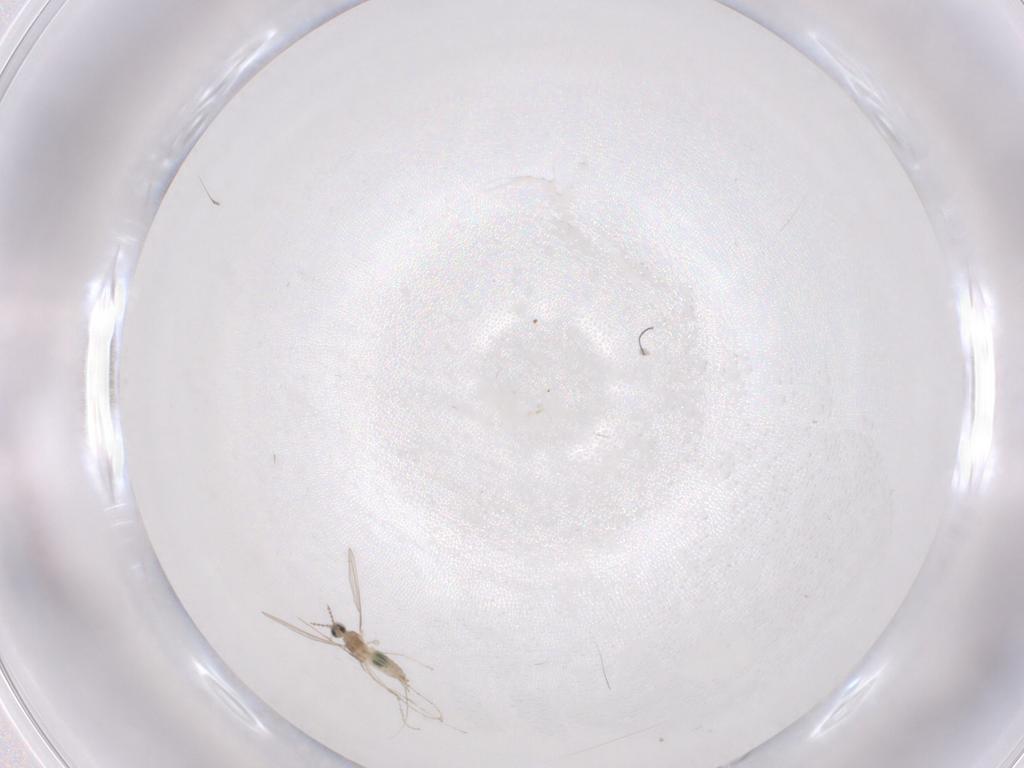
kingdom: Animalia
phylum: Arthropoda
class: Insecta
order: Diptera
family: Cecidomyiidae
